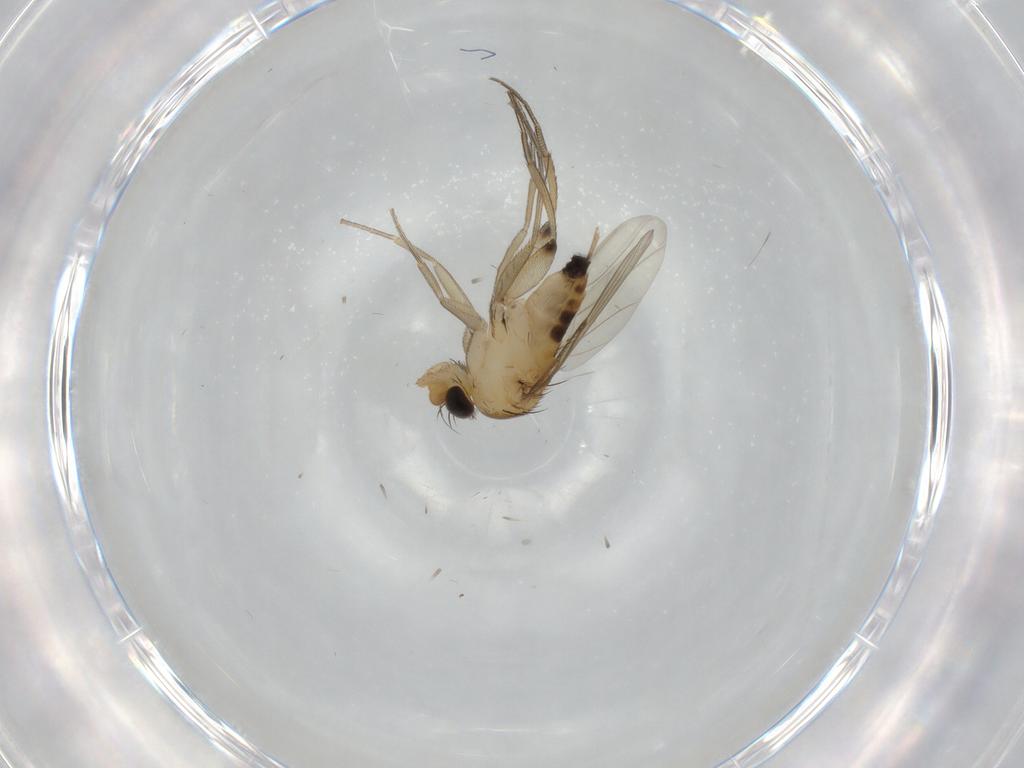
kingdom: Animalia
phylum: Arthropoda
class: Insecta
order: Diptera
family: Phoridae
